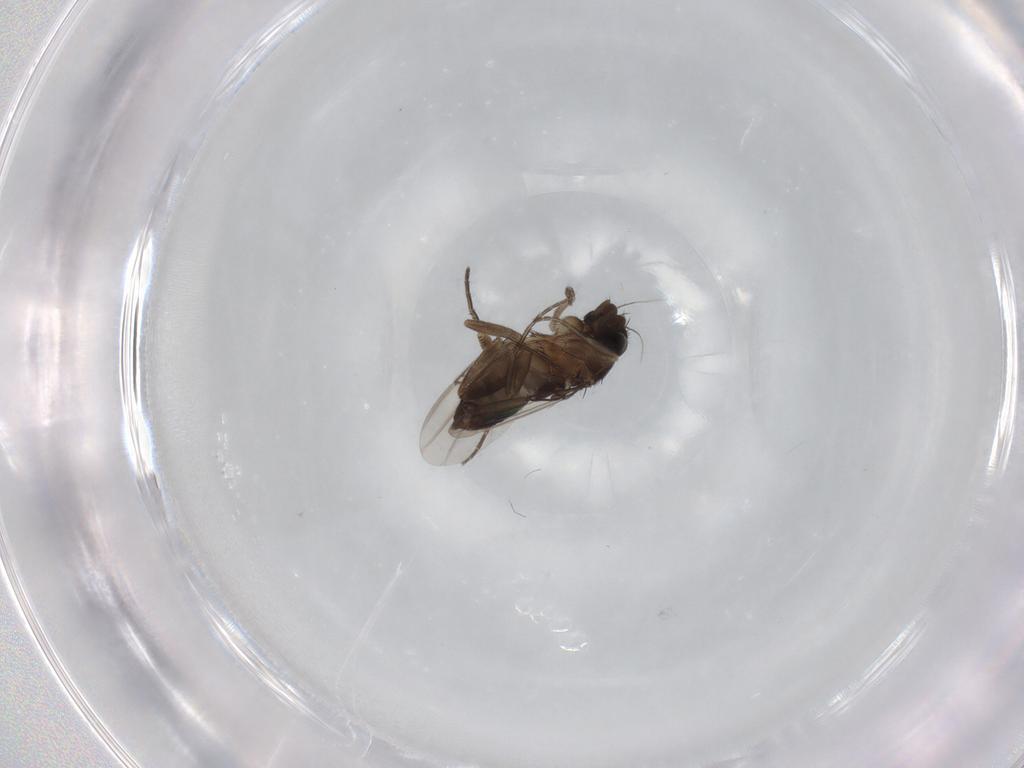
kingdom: Animalia
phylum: Arthropoda
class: Insecta
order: Diptera
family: Phoridae
